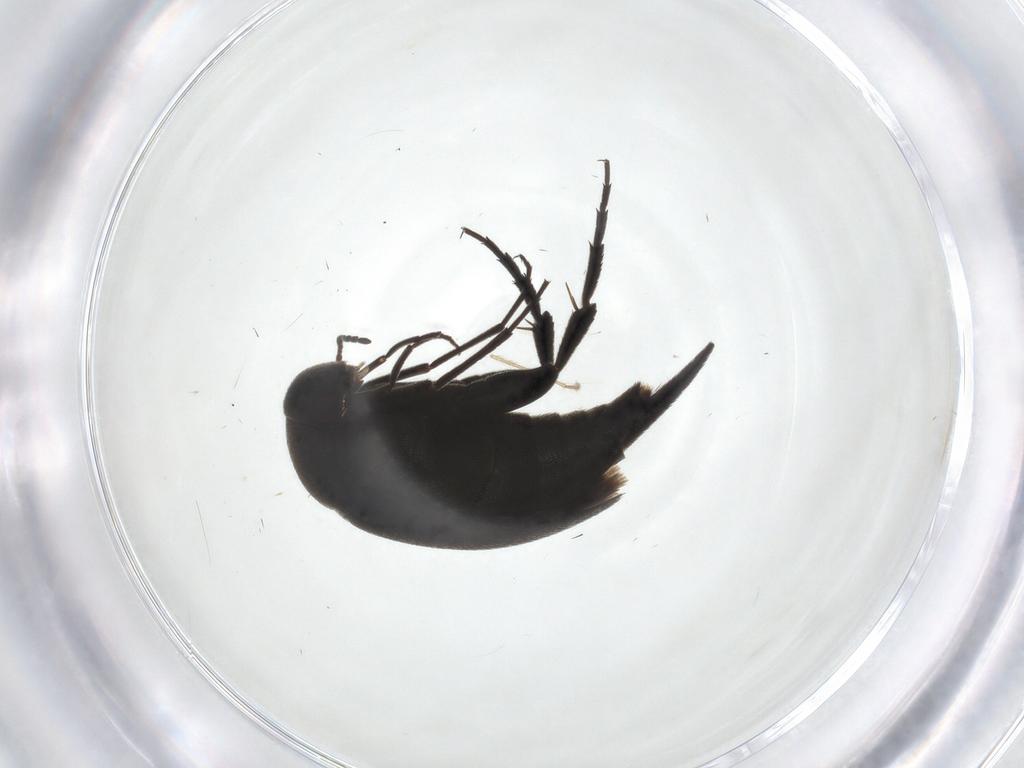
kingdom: Animalia
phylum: Arthropoda
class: Insecta
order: Coleoptera
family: Mordellidae
